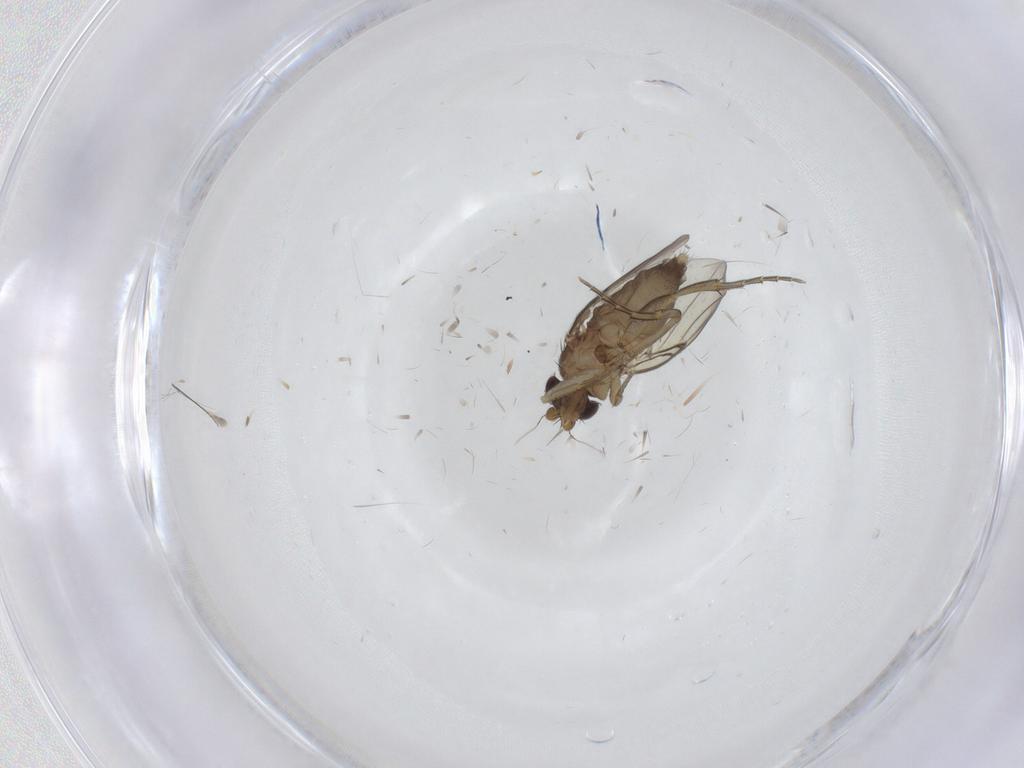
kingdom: Animalia
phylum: Arthropoda
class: Insecta
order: Diptera
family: Phoridae
